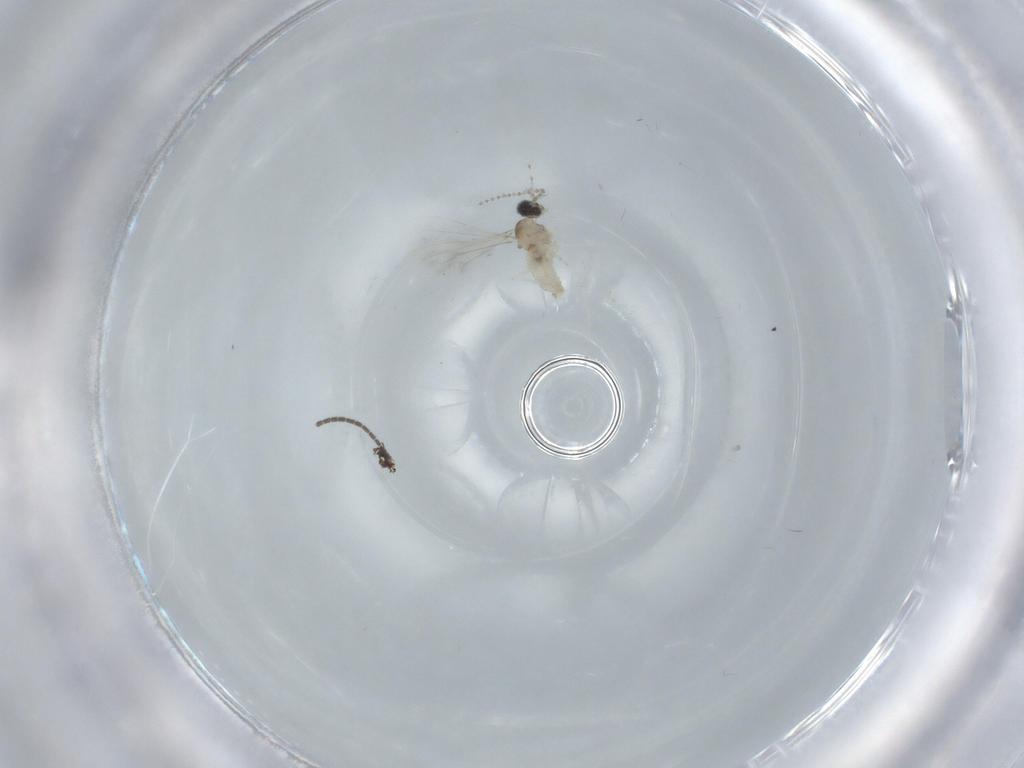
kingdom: Animalia
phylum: Arthropoda
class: Insecta
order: Diptera
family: Cecidomyiidae
